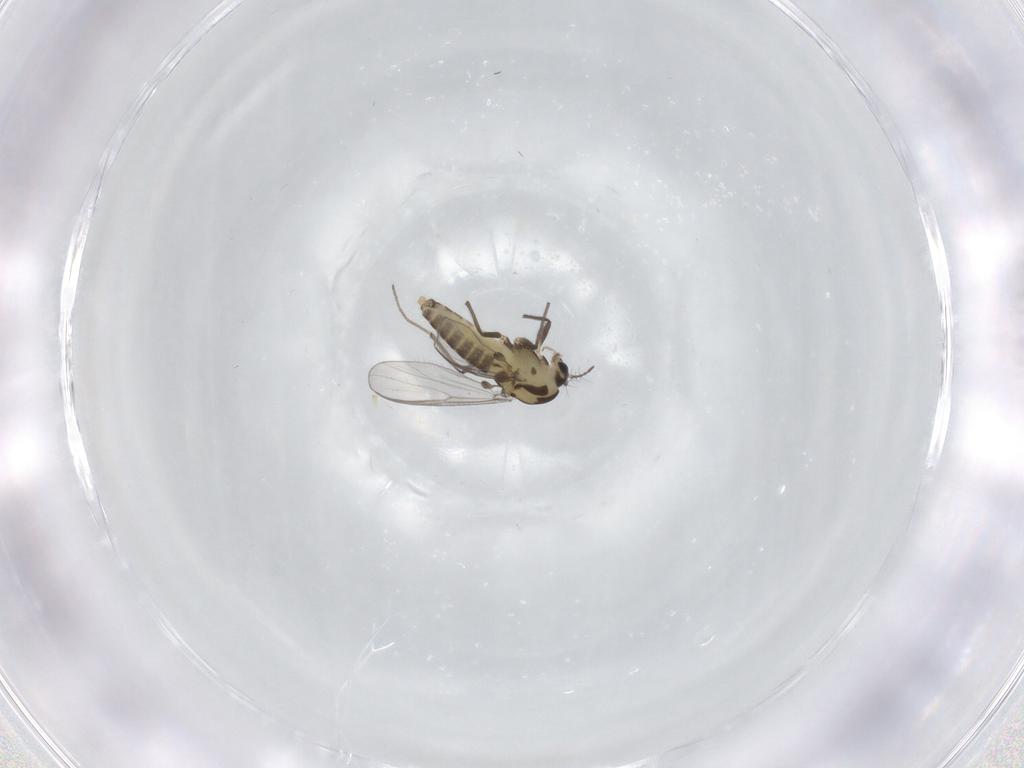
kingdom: Animalia
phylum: Arthropoda
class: Insecta
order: Diptera
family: Chironomidae
